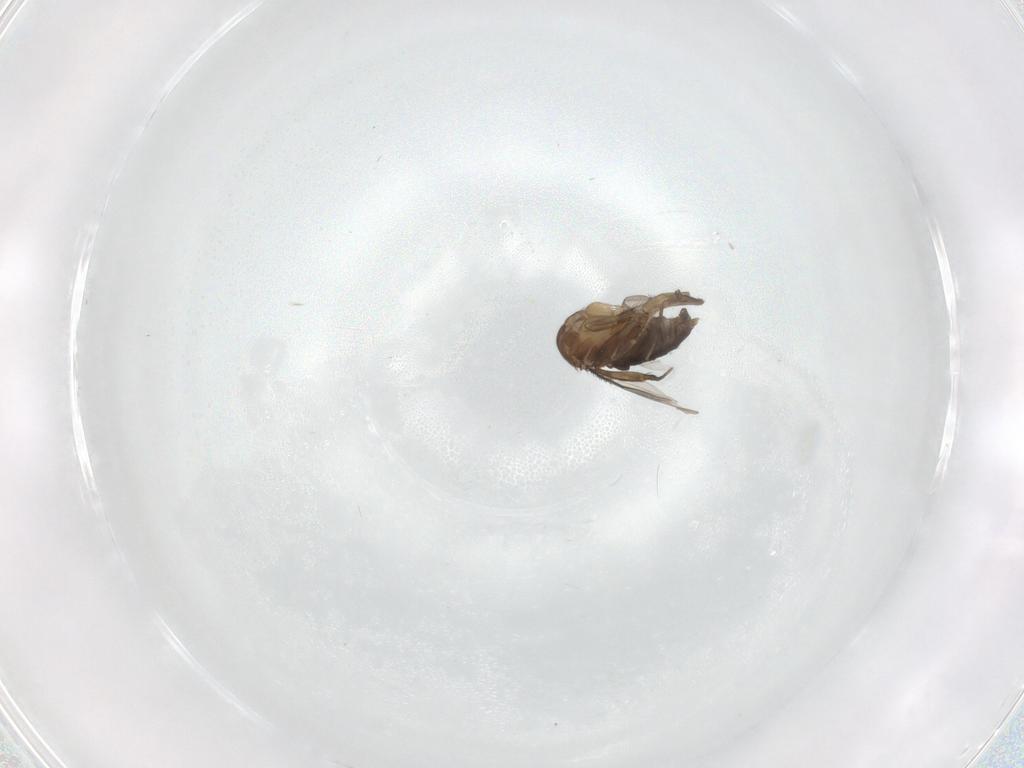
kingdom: Animalia
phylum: Arthropoda
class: Insecta
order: Diptera
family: Phoridae
